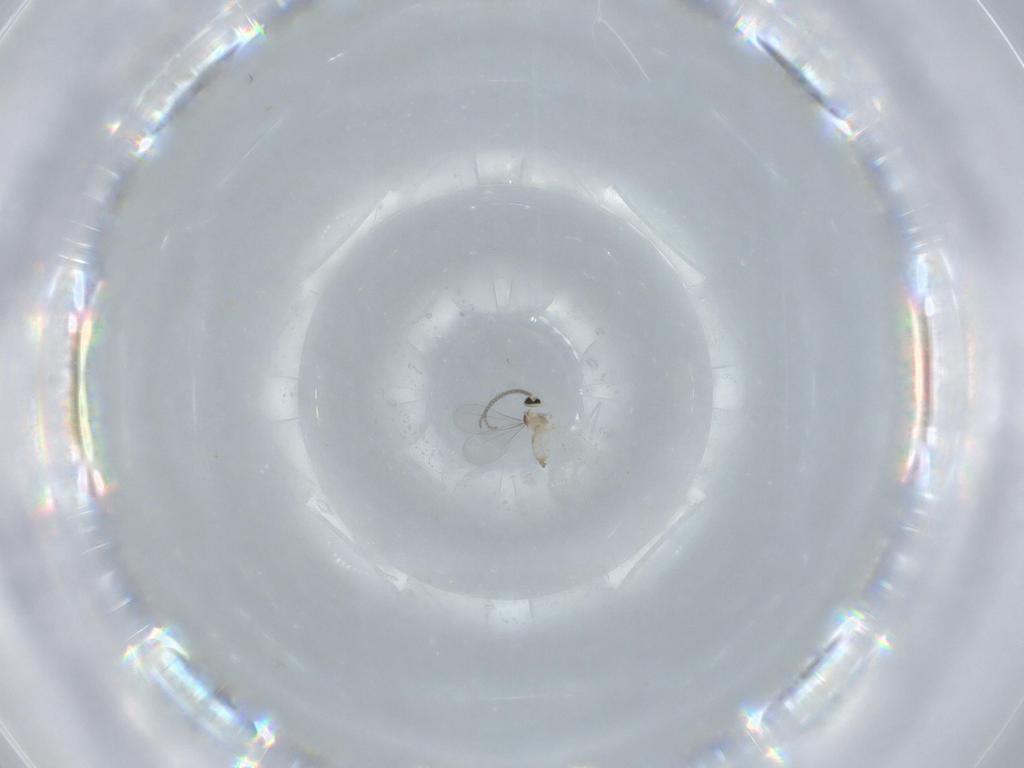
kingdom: Animalia
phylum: Arthropoda
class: Insecta
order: Diptera
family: Cecidomyiidae
